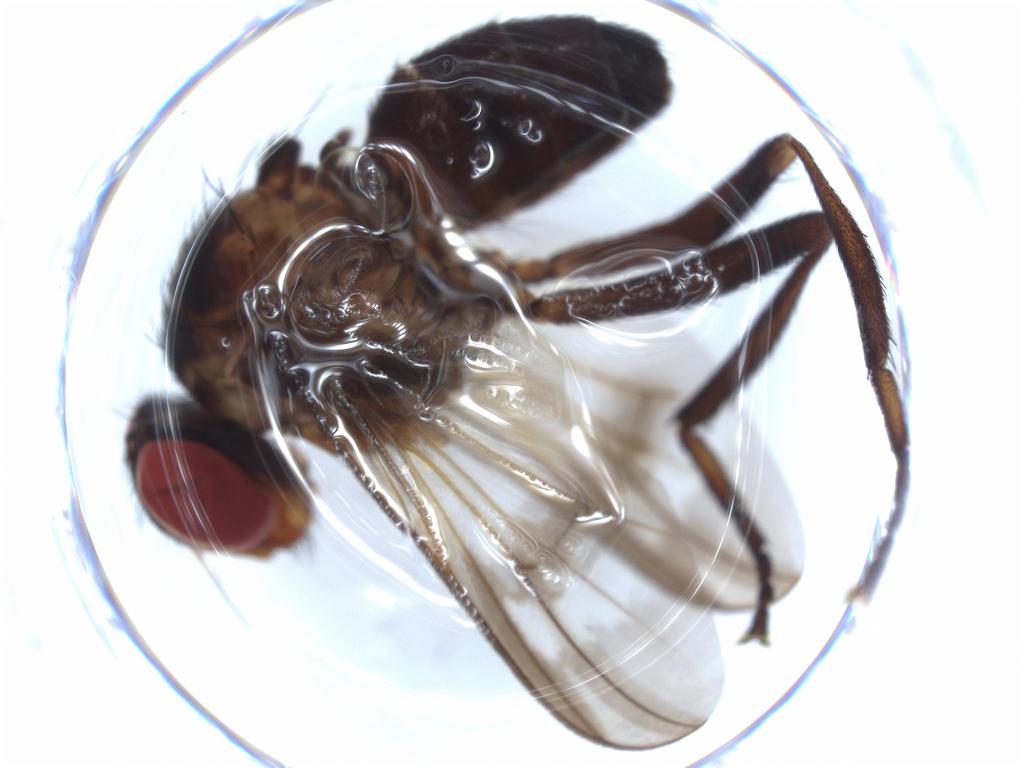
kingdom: Animalia
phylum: Arthropoda
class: Insecta
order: Diptera
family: Calliphoridae
